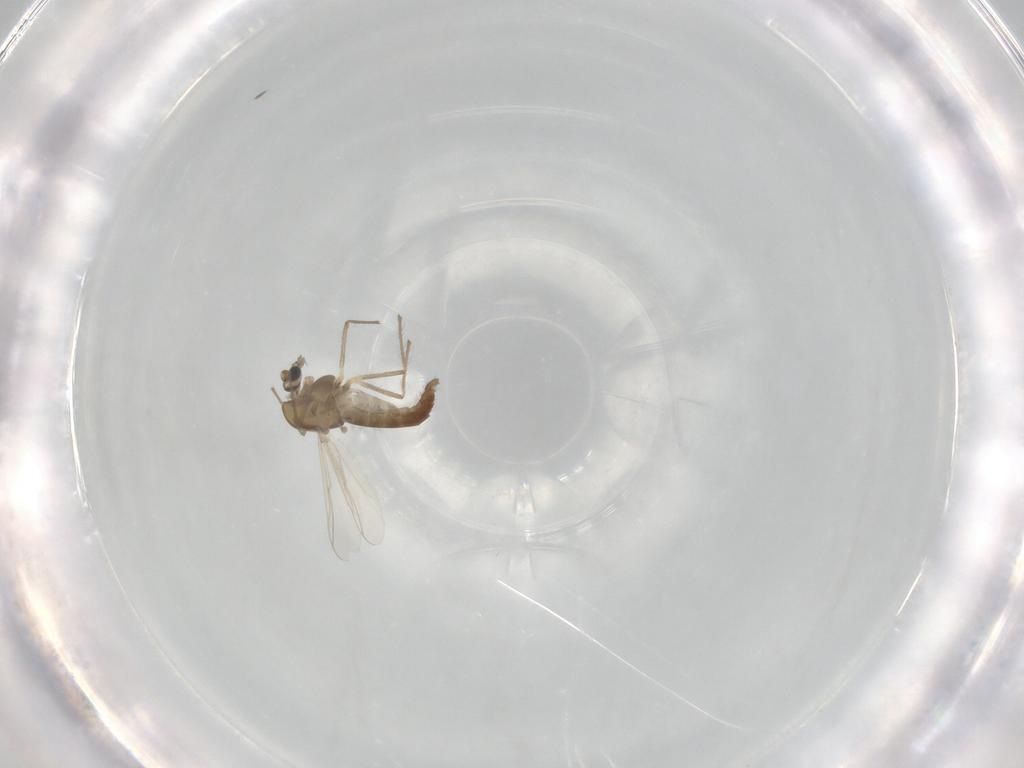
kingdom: Animalia
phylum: Arthropoda
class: Insecta
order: Diptera
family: Chironomidae
